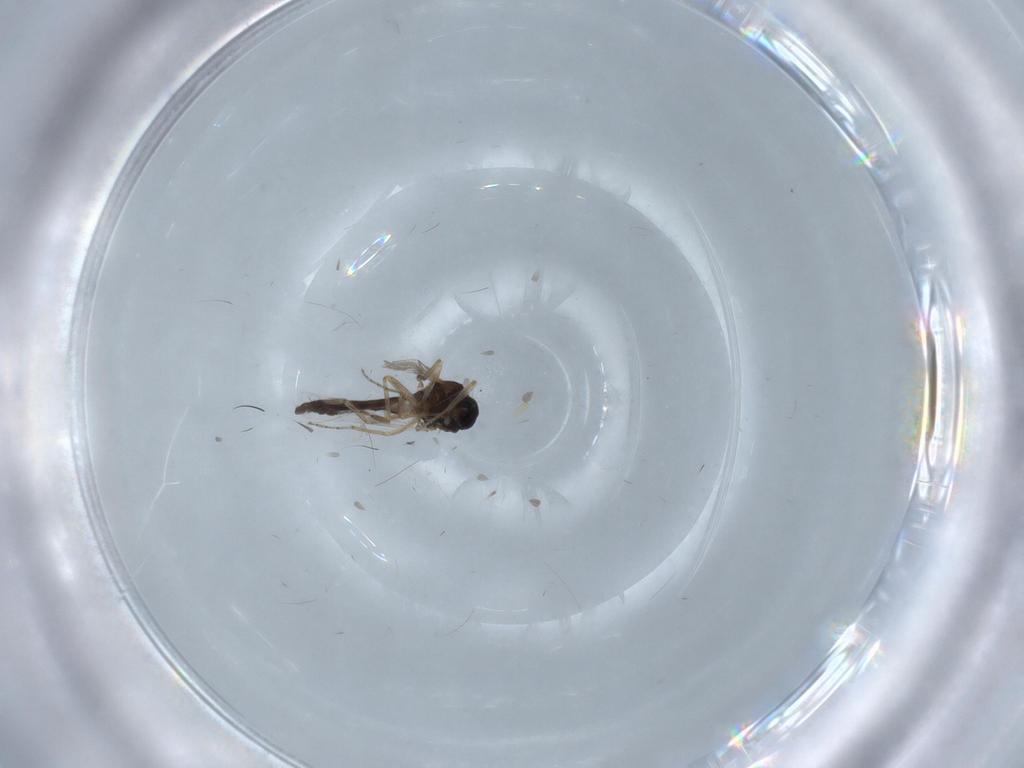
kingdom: Animalia
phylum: Arthropoda
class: Insecta
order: Diptera
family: Ceratopogonidae
